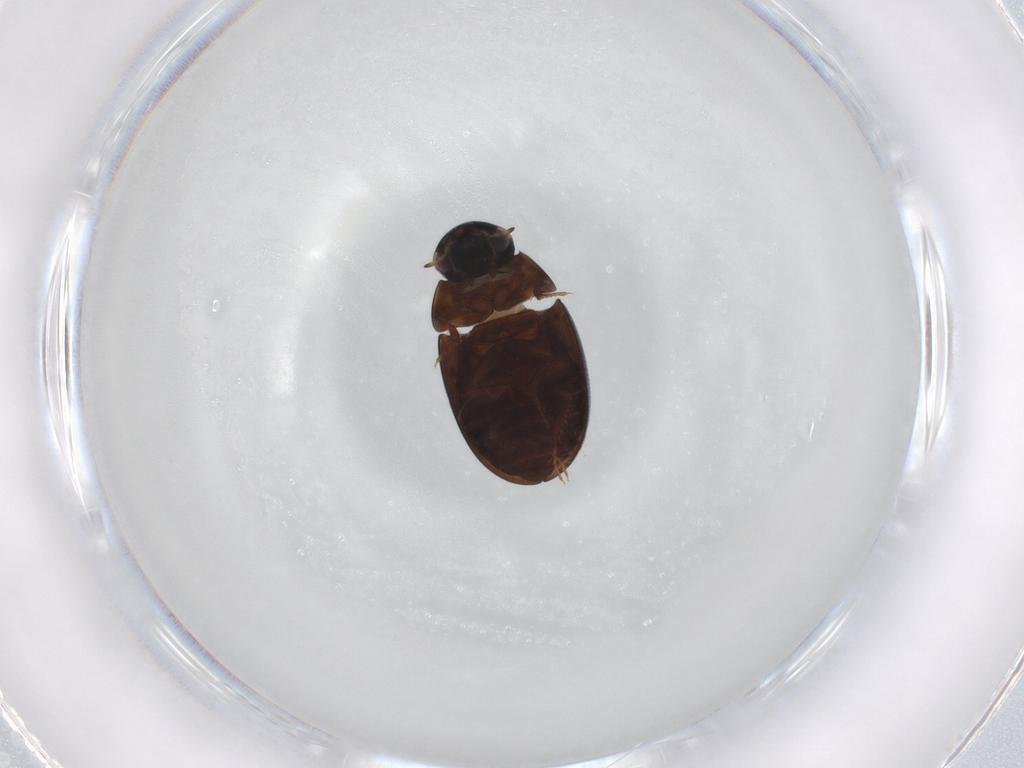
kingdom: Animalia
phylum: Arthropoda
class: Insecta
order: Coleoptera
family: Hydrophilidae
